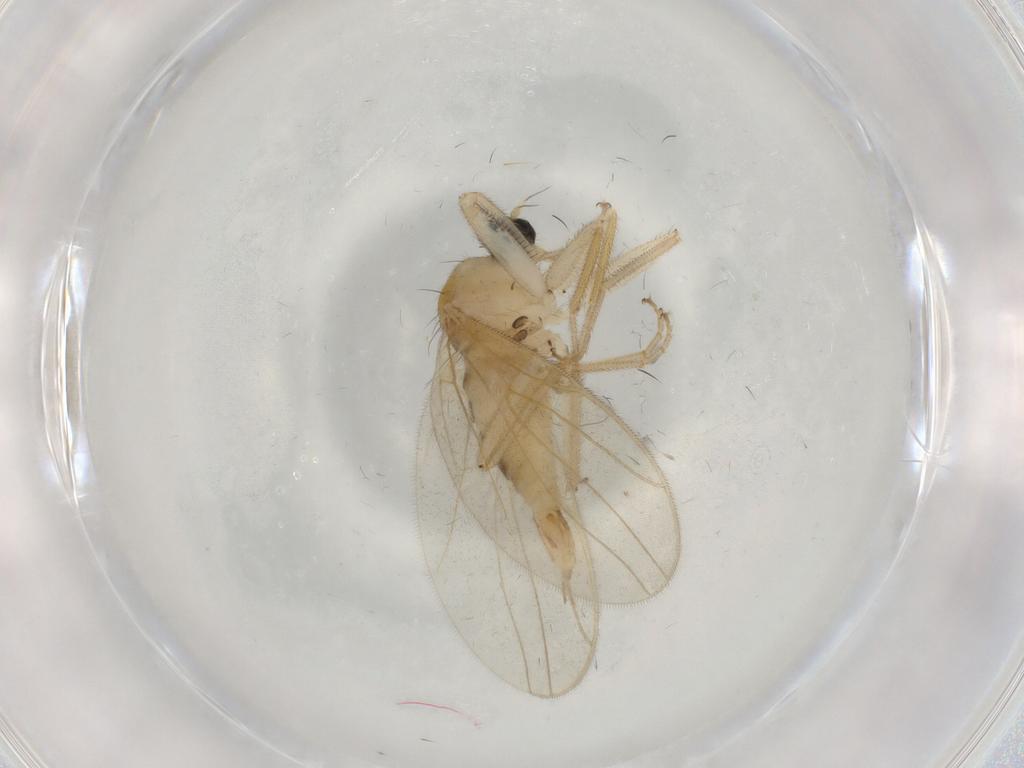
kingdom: Animalia
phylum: Arthropoda
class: Insecta
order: Diptera
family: Hybotidae
